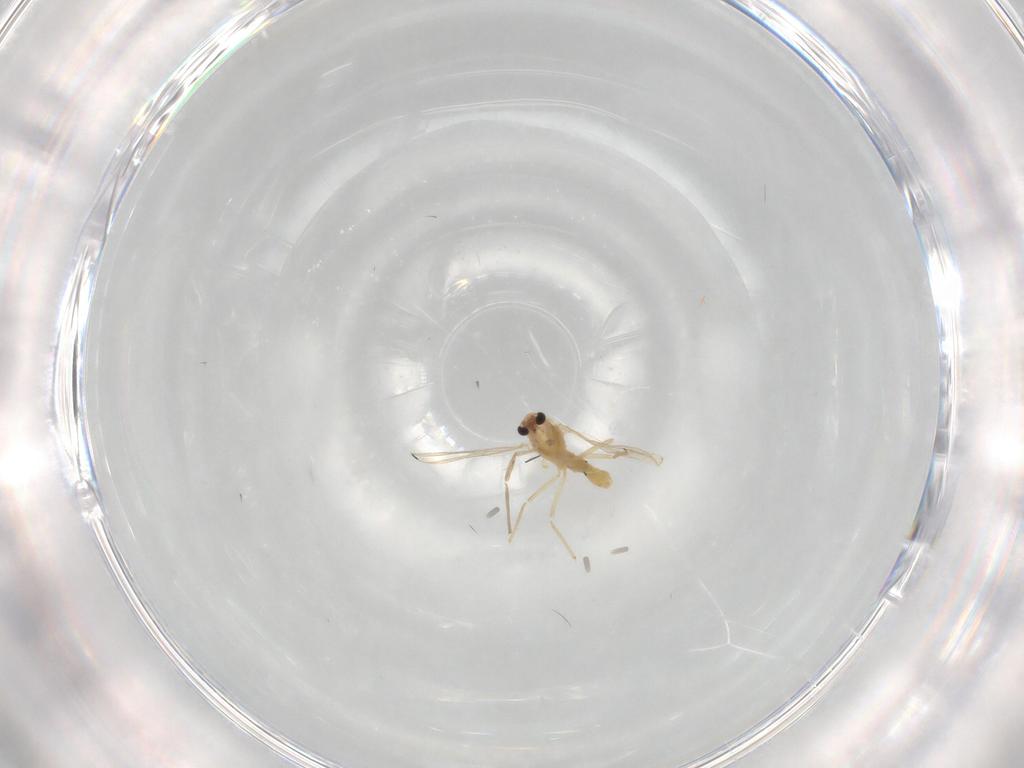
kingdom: Animalia
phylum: Arthropoda
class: Insecta
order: Diptera
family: Chironomidae
